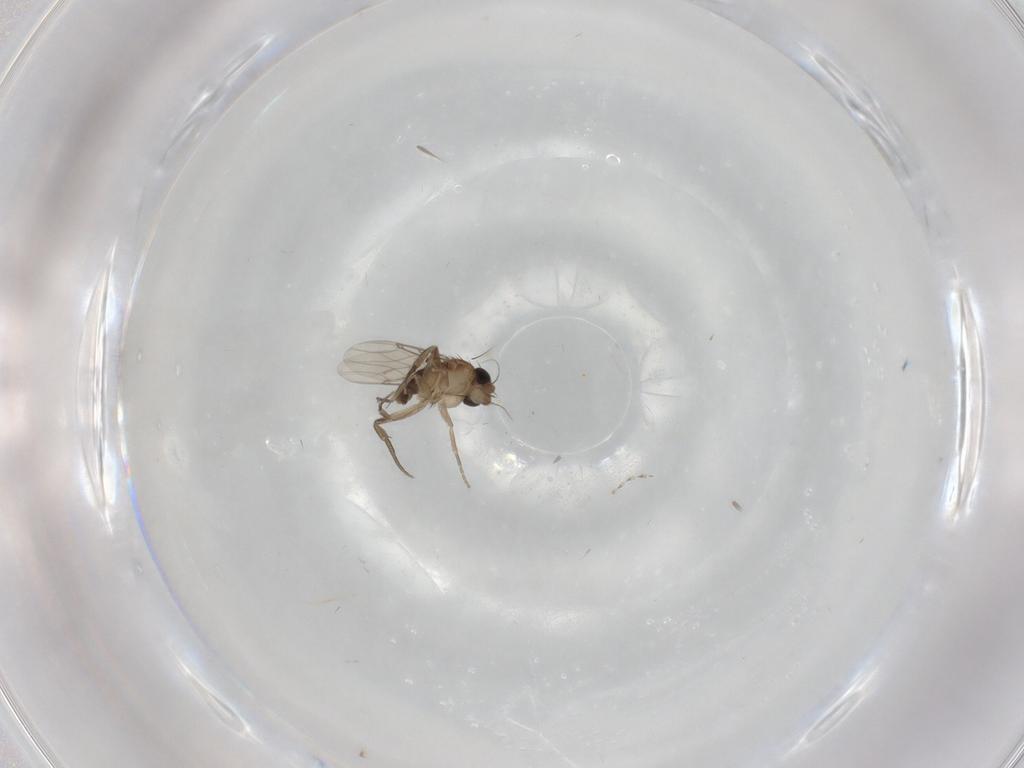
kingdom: Animalia
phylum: Arthropoda
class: Insecta
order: Diptera
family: Phoridae
